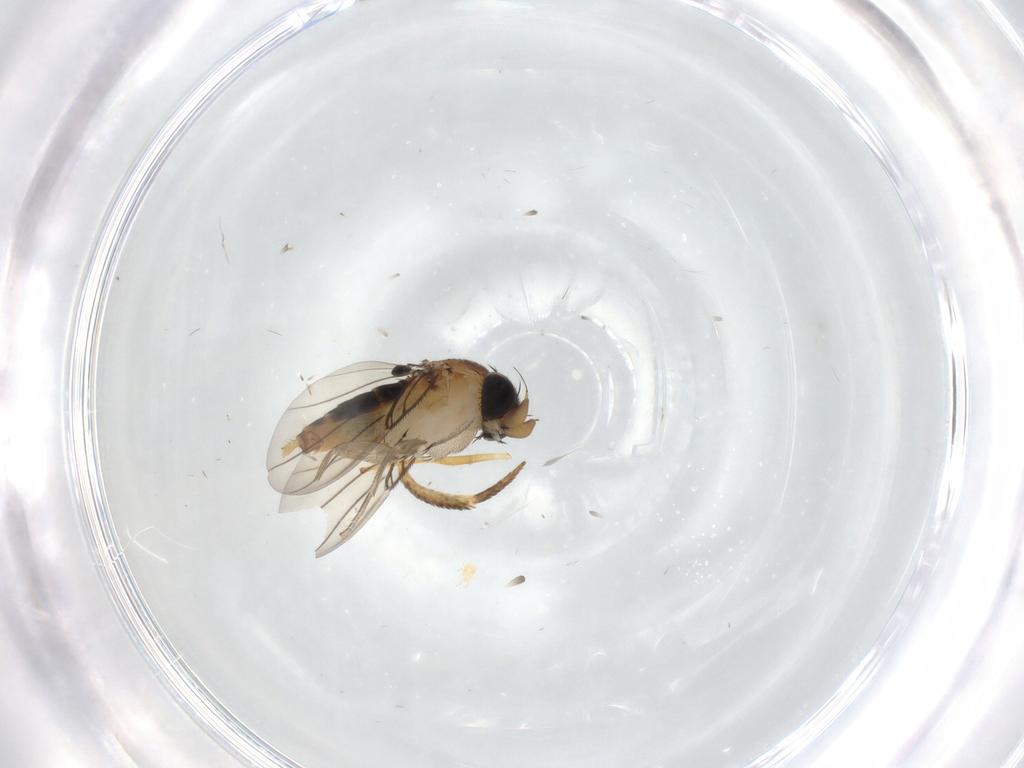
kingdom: Animalia
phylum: Arthropoda
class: Insecta
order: Diptera
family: Phoridae
